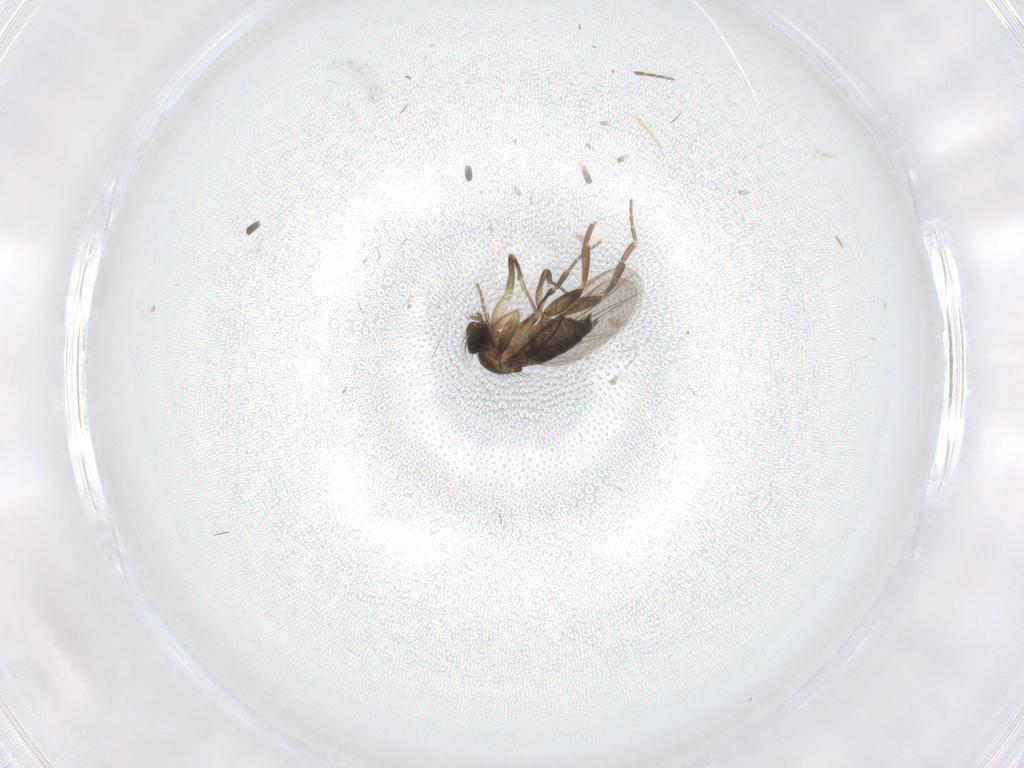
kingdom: Animalia
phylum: Arthropoda
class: Insecta
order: Diptera
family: Phoridae
